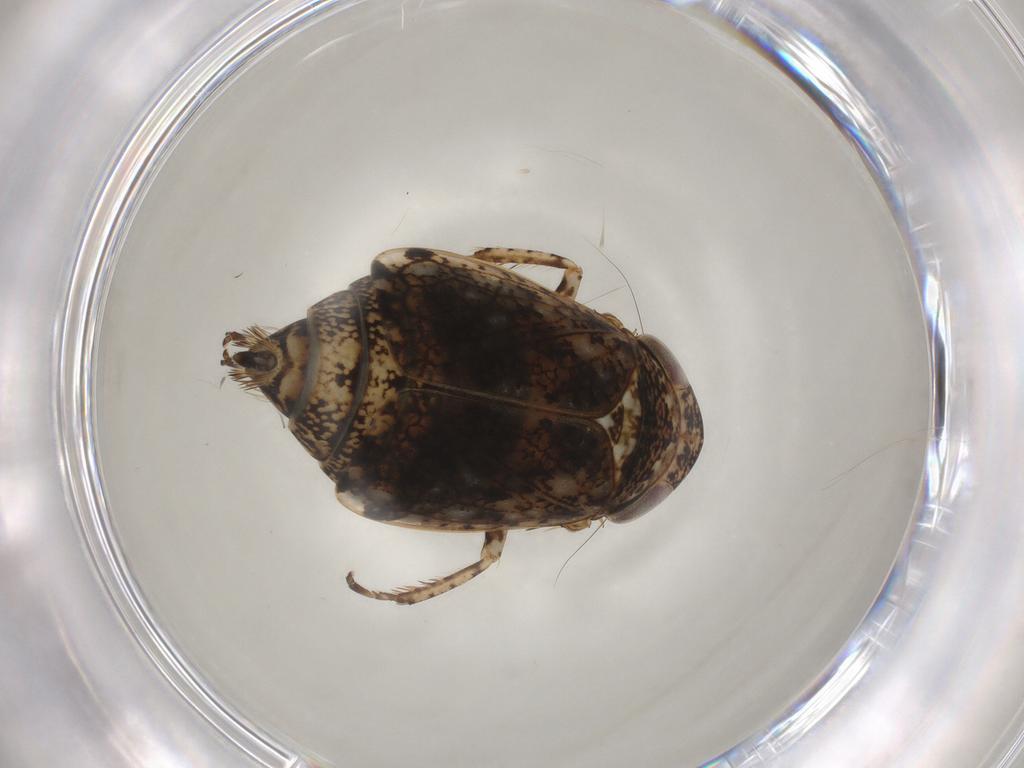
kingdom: Animalia
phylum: Arthropoda
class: Insecta
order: Hemiptera
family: Cicadellidae
